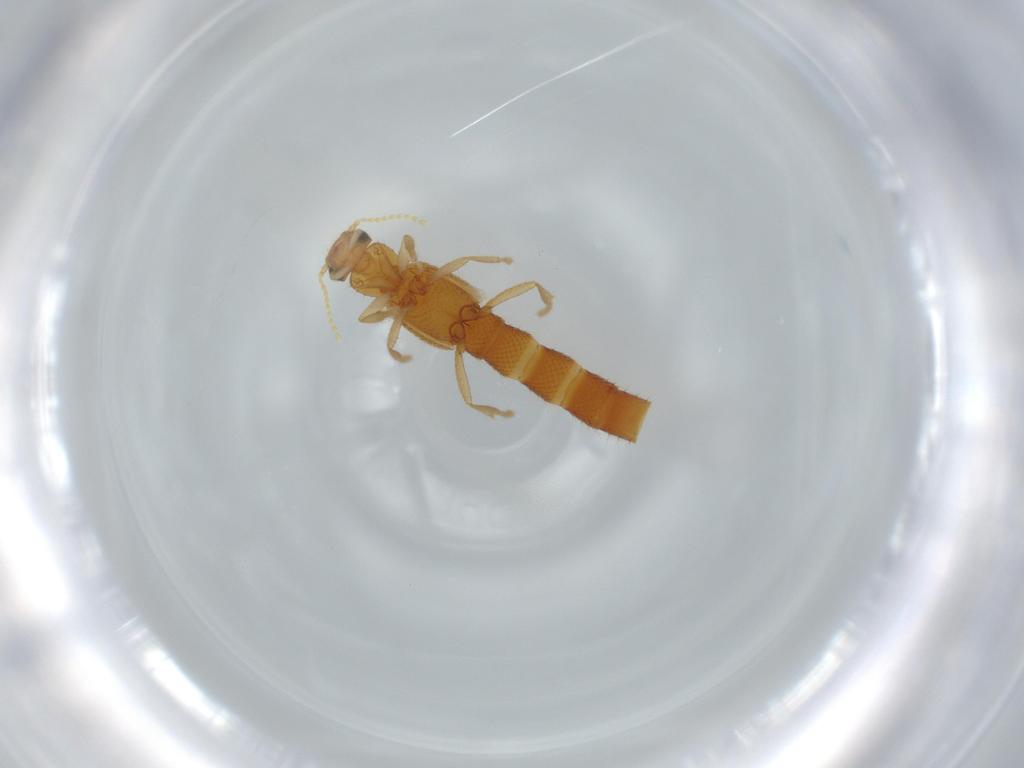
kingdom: Animalia
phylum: Arthropoda
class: Insecta
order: Coleoptera
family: Staphylinidae
